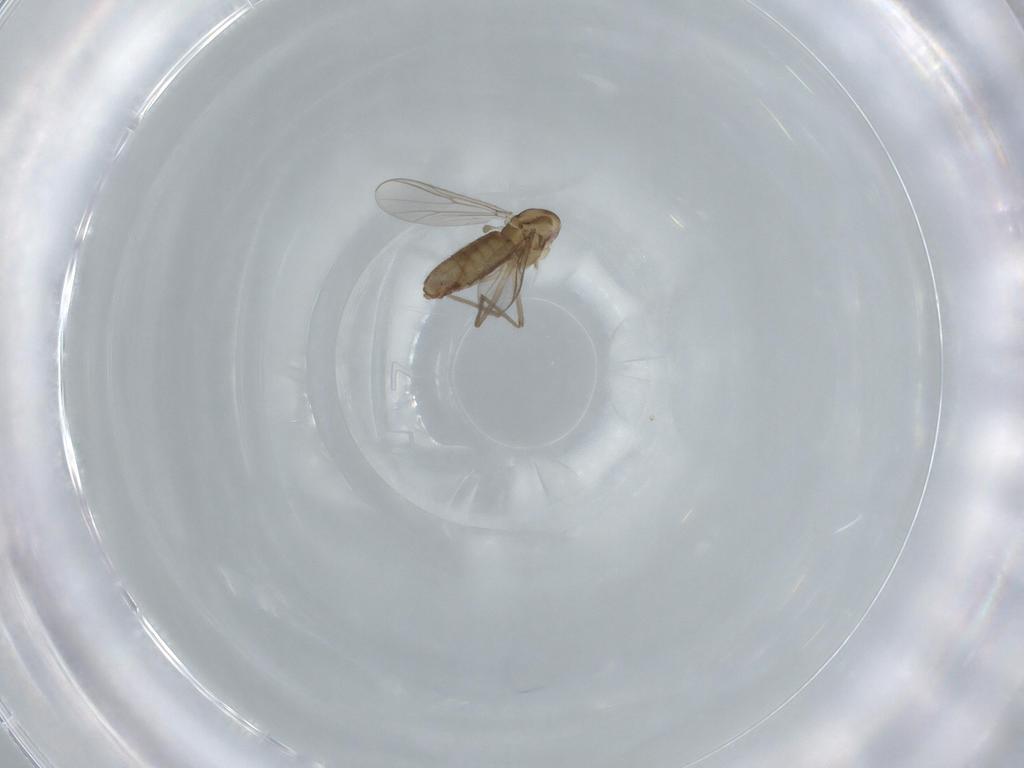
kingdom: Animalia
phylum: Arthropoda
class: Insecta
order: Diptera
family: Chironomidae
